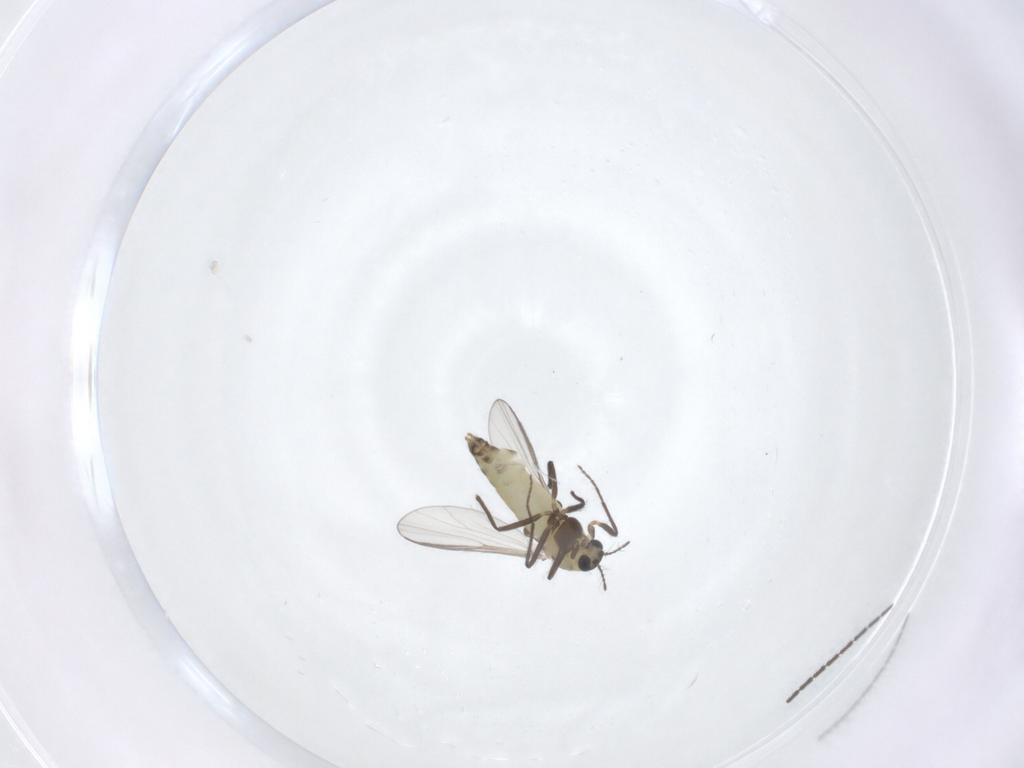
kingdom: Animalia
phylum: Arthropoda
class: Insecta
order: Diptera
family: Chironomidae
